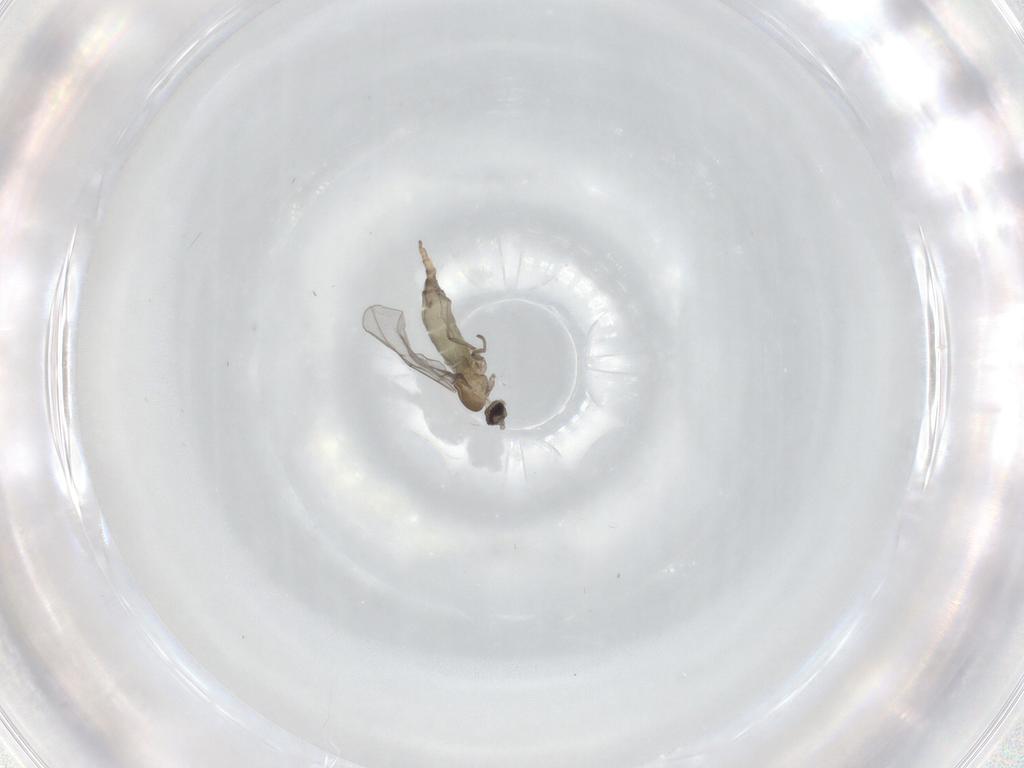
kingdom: Animalia
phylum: Arthropoda
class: Insecta
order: Diptera
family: Cecidomyiidae
